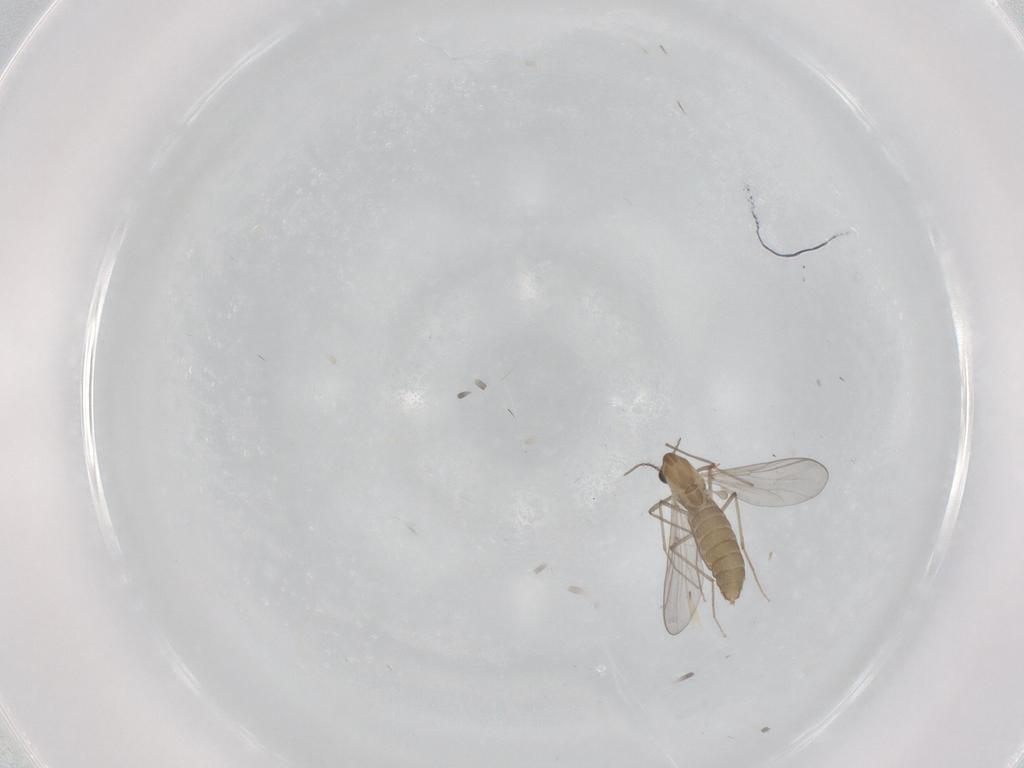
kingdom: Animalia
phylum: Arthropoda
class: Insecta
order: Diptera
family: Chironomidae
